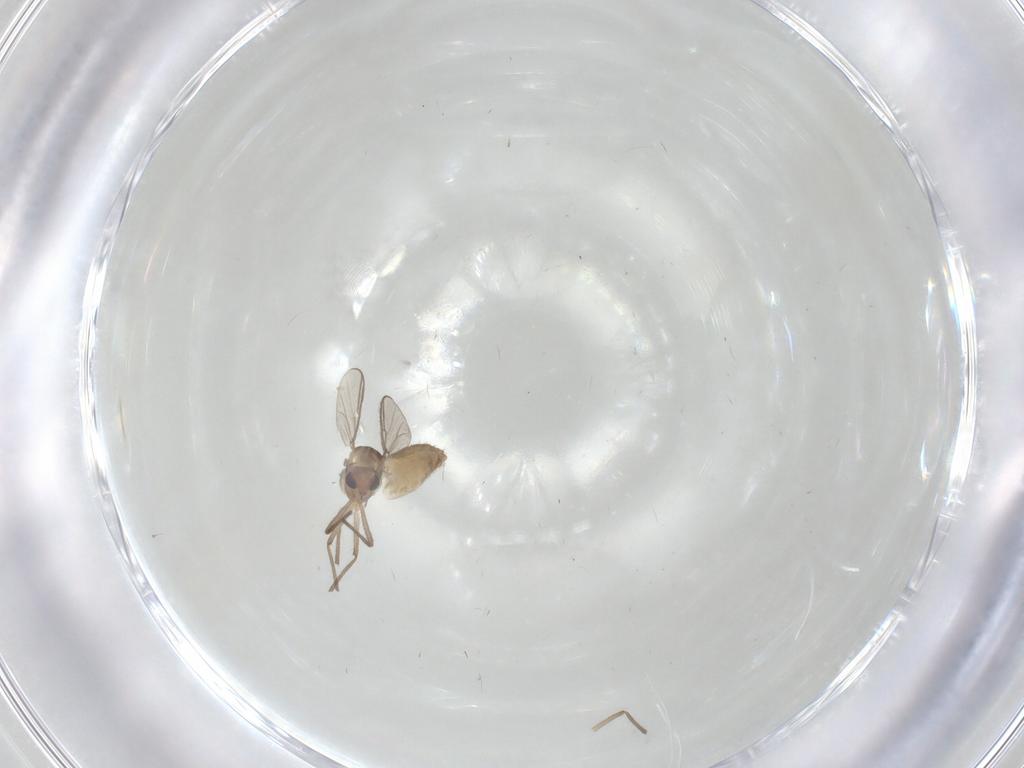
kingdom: Animalia
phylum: Arthropoda
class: Insecta
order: Diptera
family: Chironomidae
